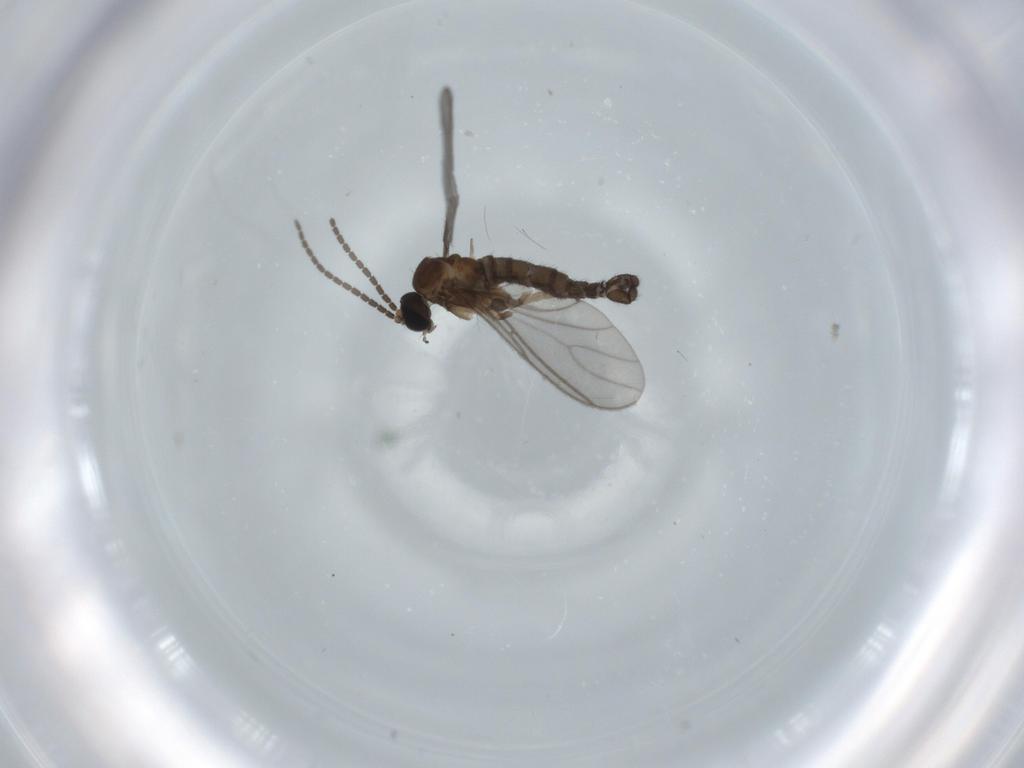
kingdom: Animalia
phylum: Arthropoda
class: Insecta
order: Diptera
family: Sciaridae
